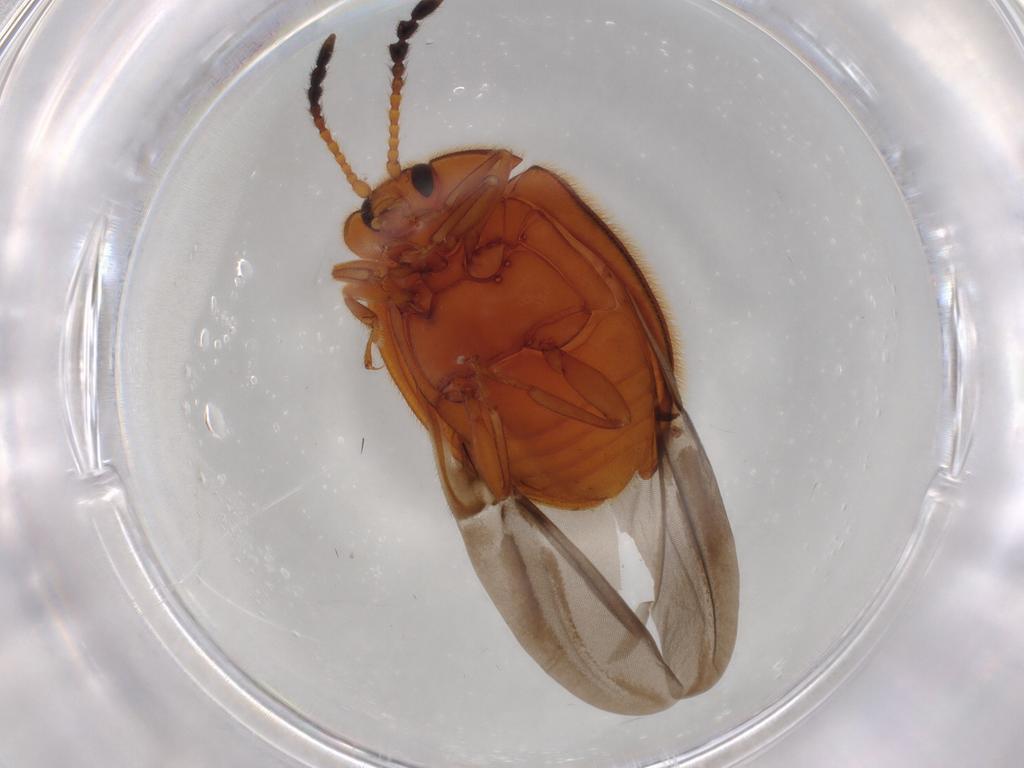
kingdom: Animalia
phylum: Arthropoda
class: Insecta
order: Coleoptera
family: Endomychidae
